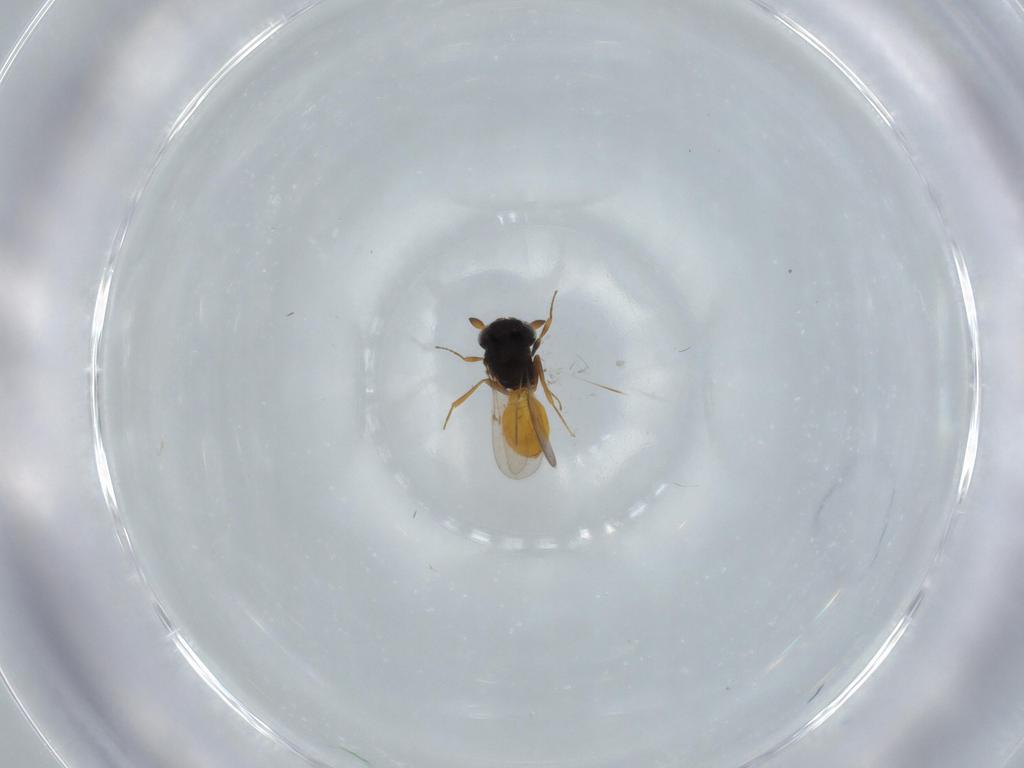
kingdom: Animalia
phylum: Arthropoda
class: Insecta
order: Hymenoptera
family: Scelionidae
